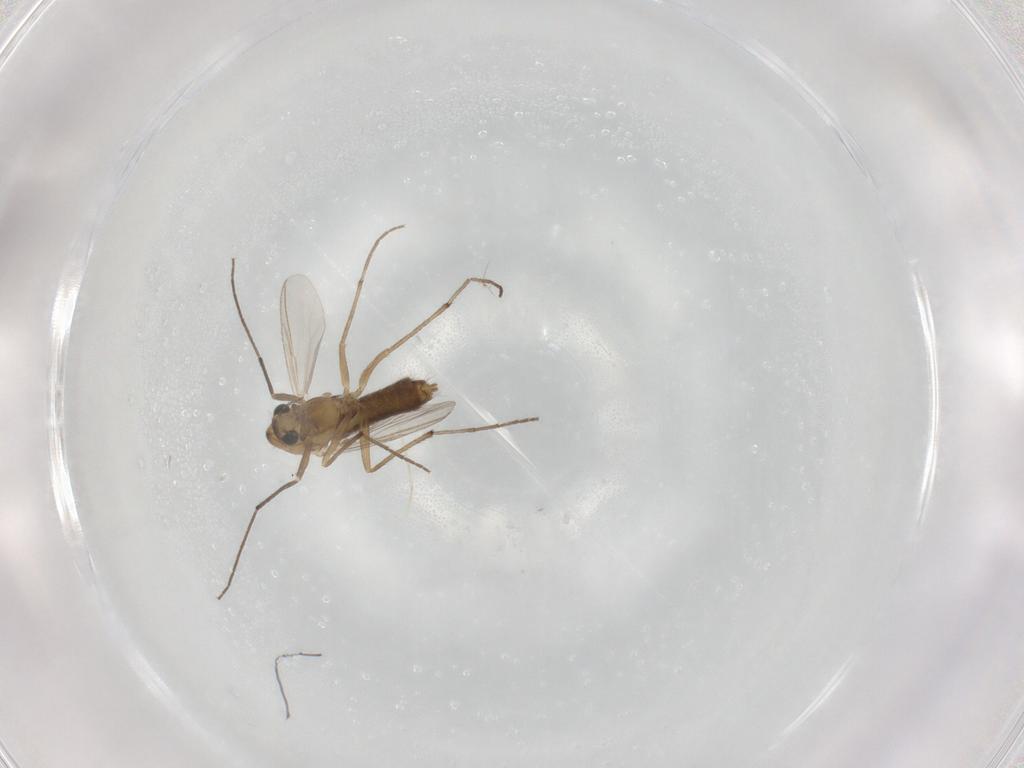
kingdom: Animalia
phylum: Arthropoda
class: Insecta
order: Diptera
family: Chironomidae
